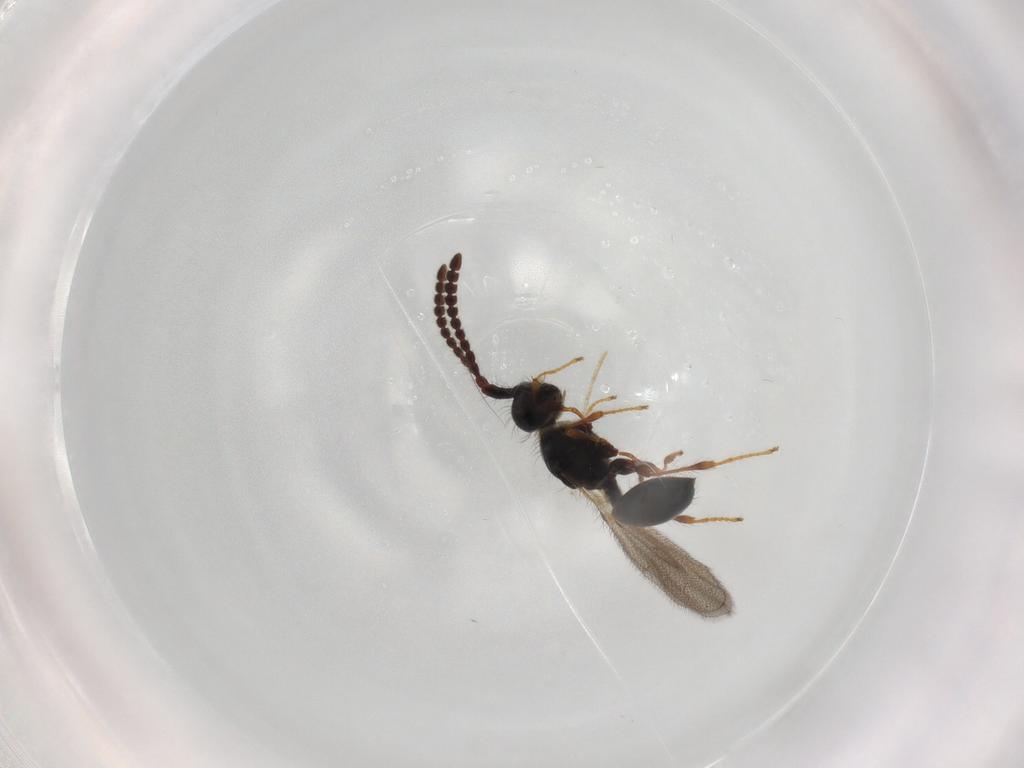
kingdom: Animalia
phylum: Arthropoda
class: Insecta
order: Hymenoptera
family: Diapriidae
